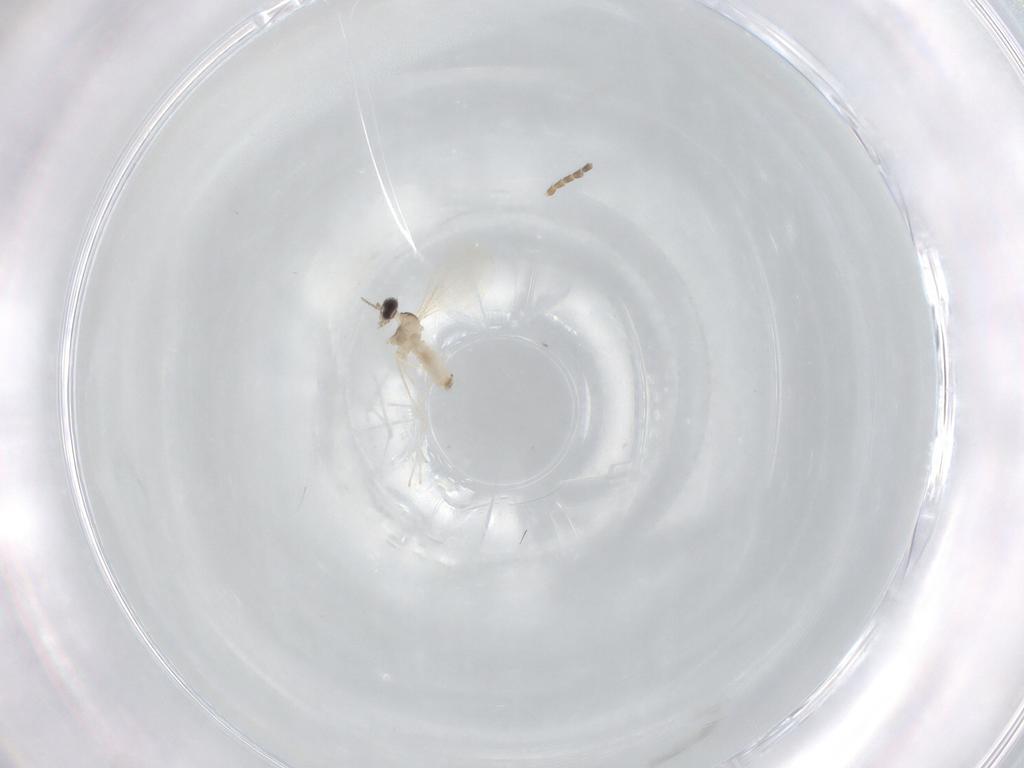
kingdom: Animalia
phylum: Arthropoda
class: Insecta
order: Diptera
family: Cecidomyiidae
